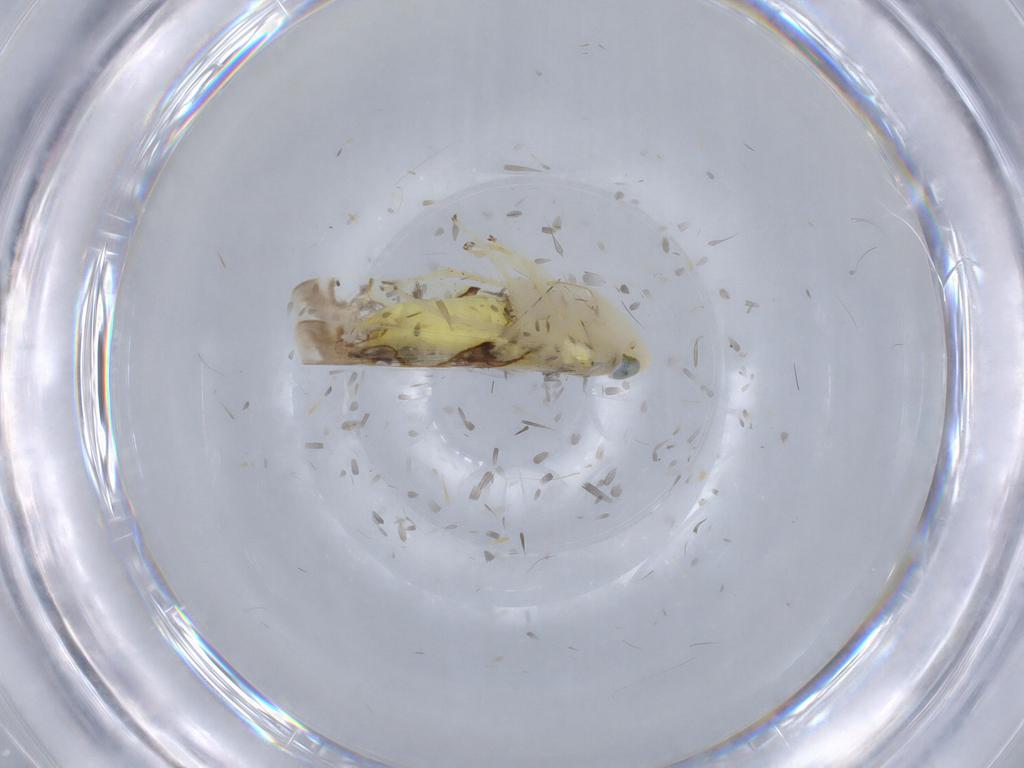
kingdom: Animalia
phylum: Arthropoda
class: Insecta
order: Hemiptera
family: Cicadellidae
